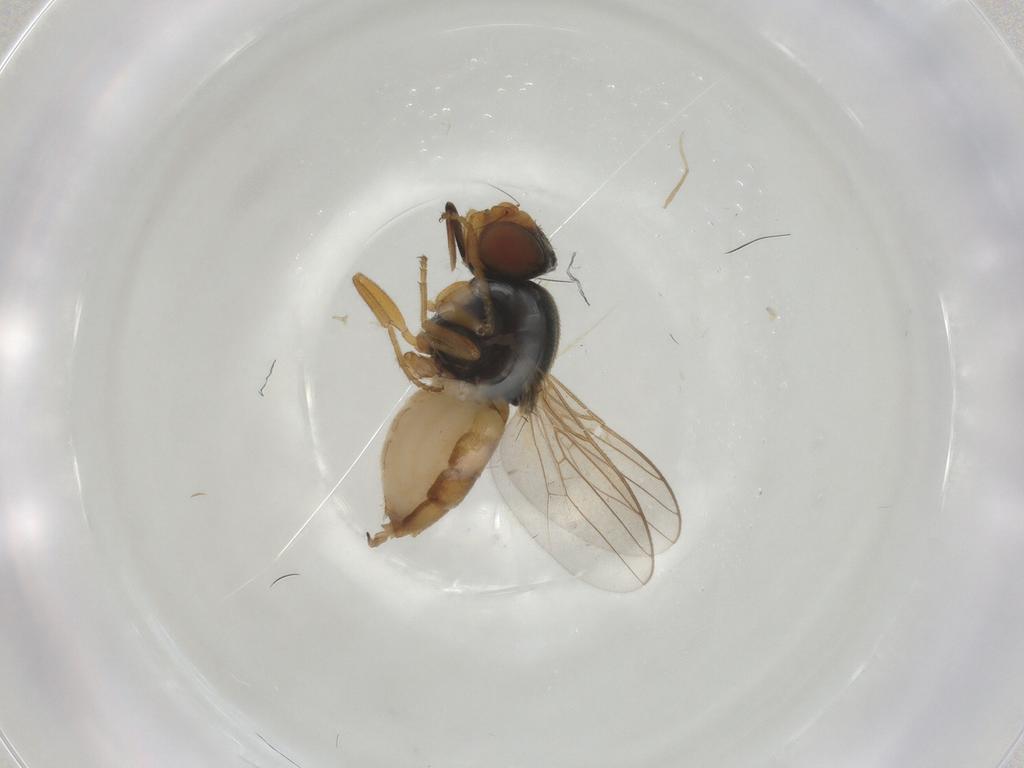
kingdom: Animalia
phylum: Arthropoda
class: Insecta
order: Diptera
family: Chloropidae
